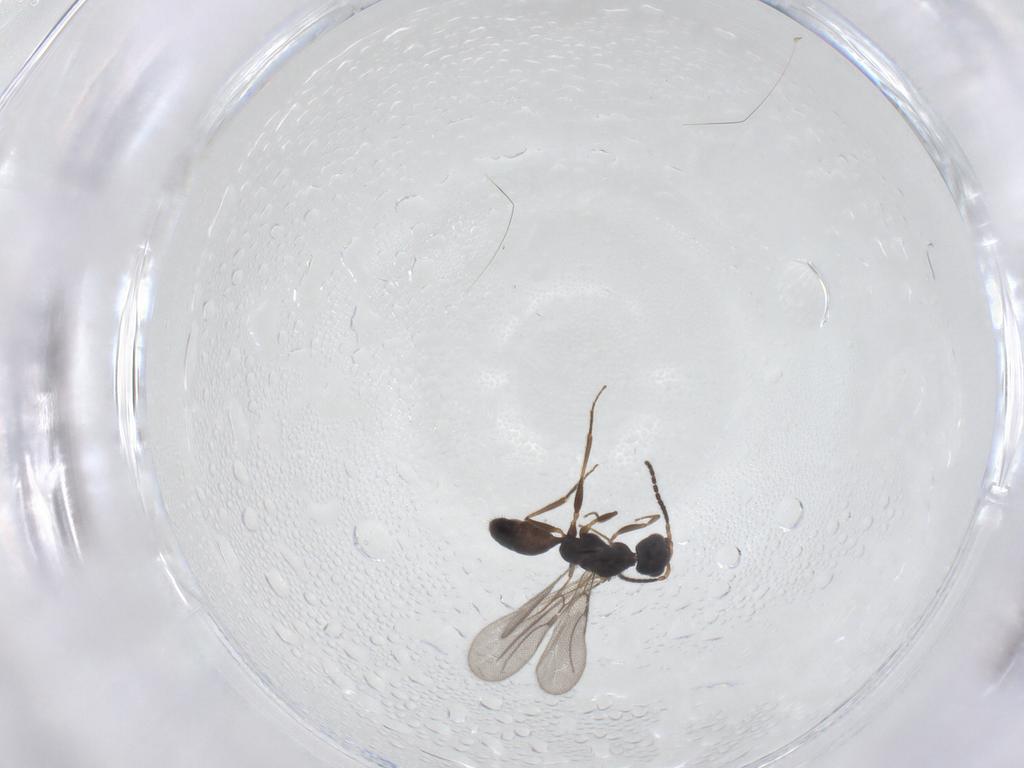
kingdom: Animalia
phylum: Arthropoda
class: Insecta
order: Hymenoptera
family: Bethylidae
